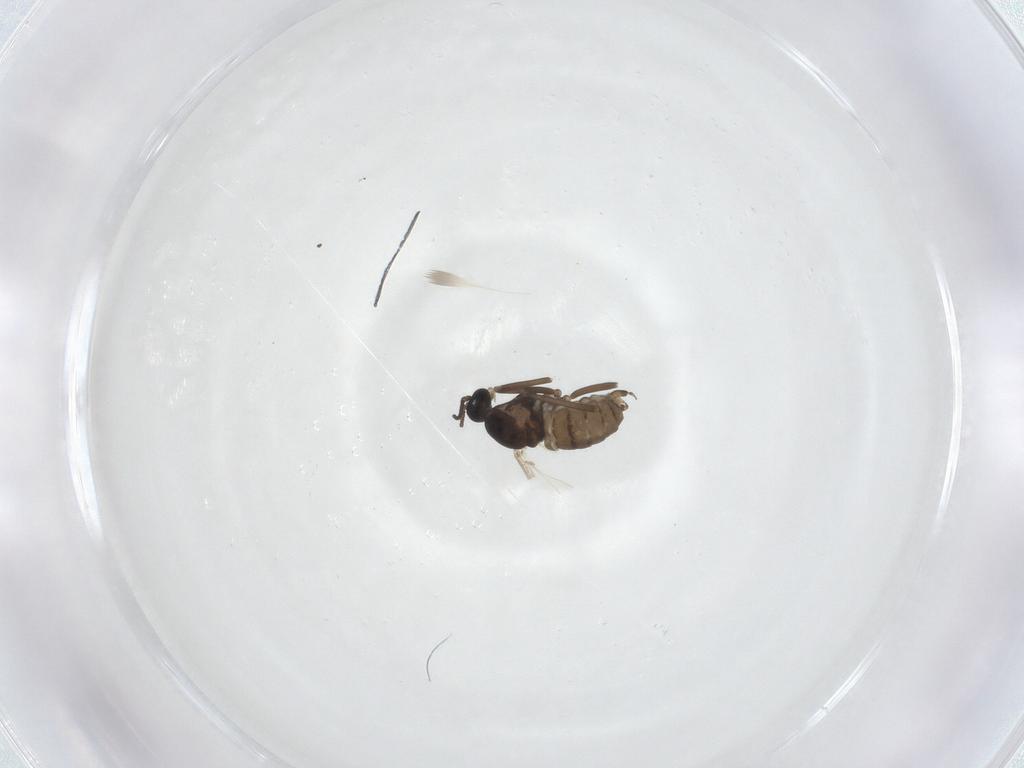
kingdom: Animalia
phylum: Arthropoda
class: Insecta
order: Diptera
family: Cecidomyiidae
